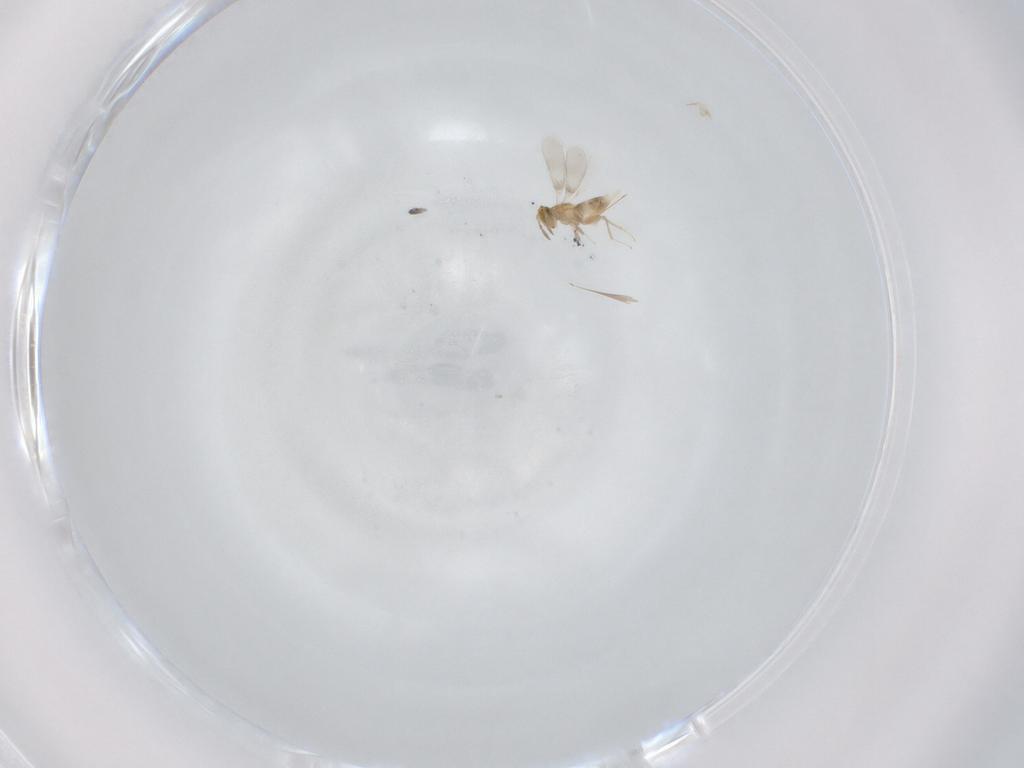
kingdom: Animalia
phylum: Arthropoda
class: Insecta
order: Hymenoptera
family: Aphelinidae
